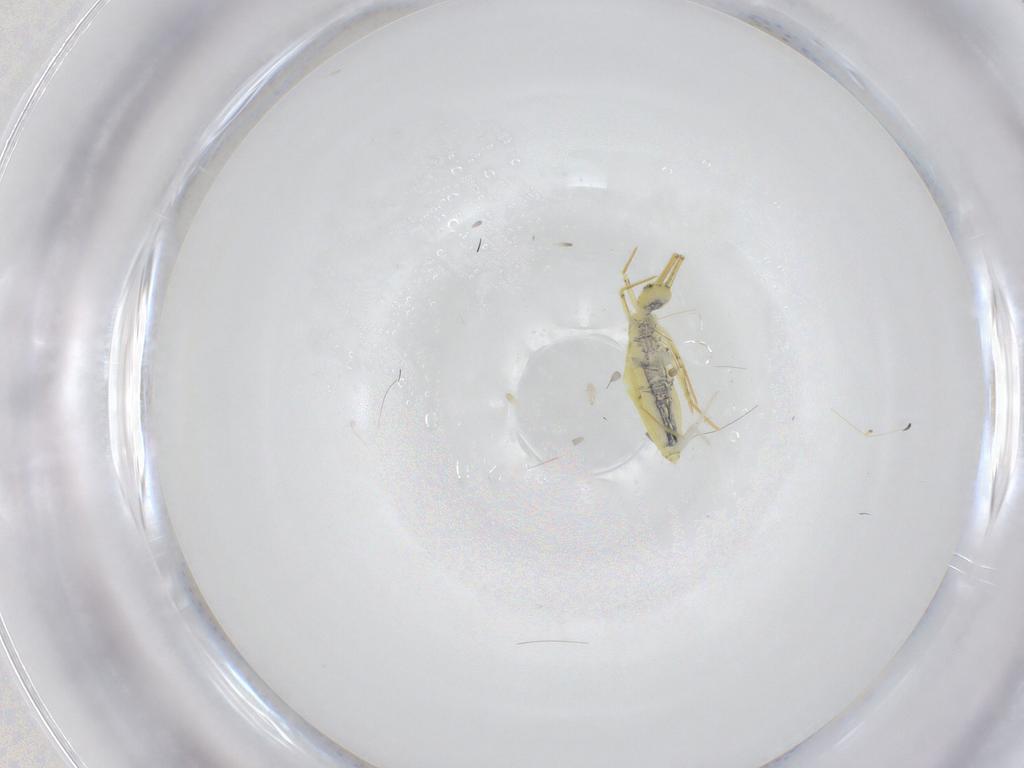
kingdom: Animalia
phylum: Arthropoda
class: Collembola
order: Entomobryomorpha
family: Entomobryidae
